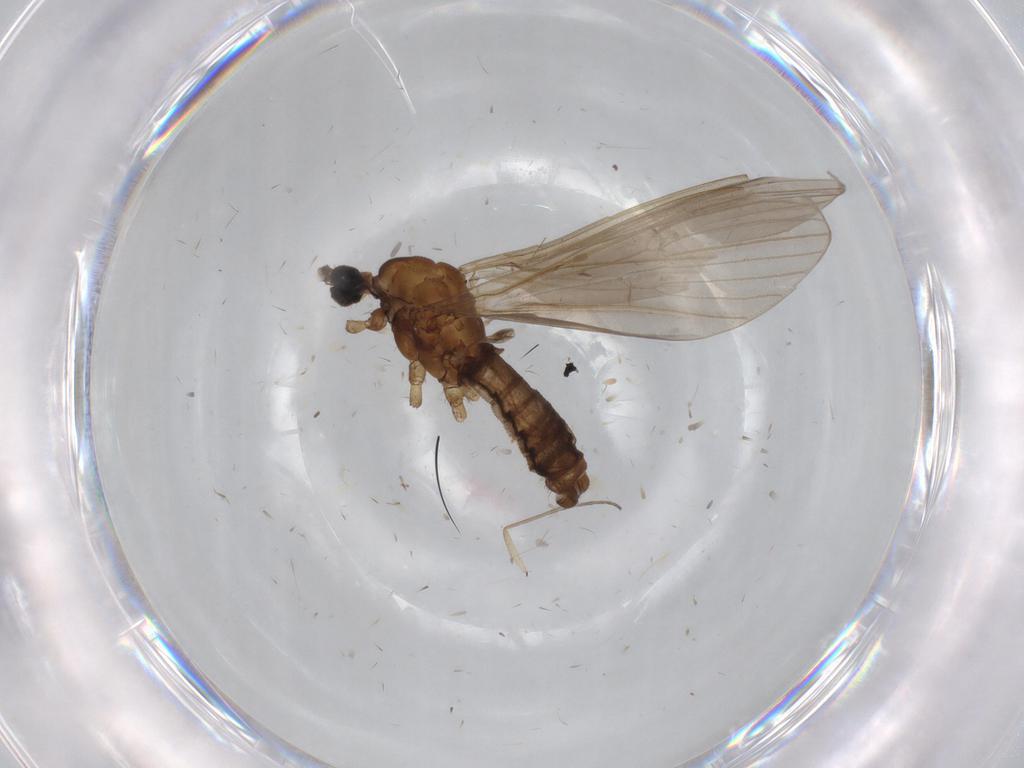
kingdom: Animalia
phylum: Arthropoda
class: Insecta
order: Diptera
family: Limoniidae
